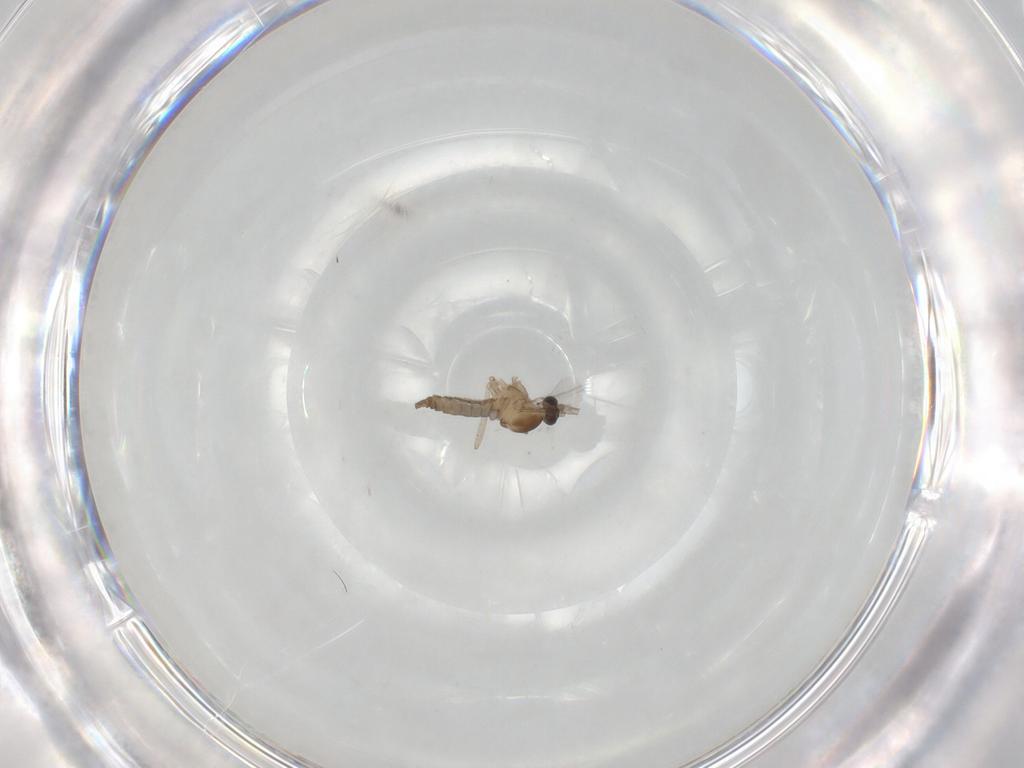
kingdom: Animalia
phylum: Arthropoda
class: Insecta
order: Diptera
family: Cecidomyiidae
